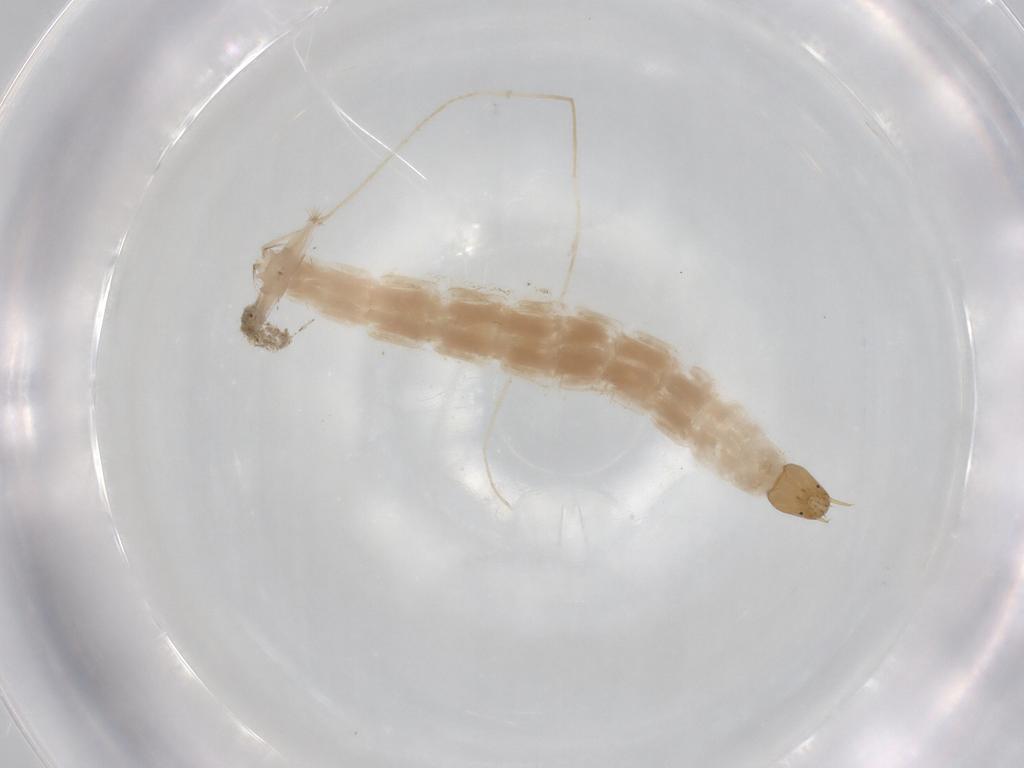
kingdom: Animalia
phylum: Arthropoda
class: Insecta
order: Diptera
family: Chironomidae
